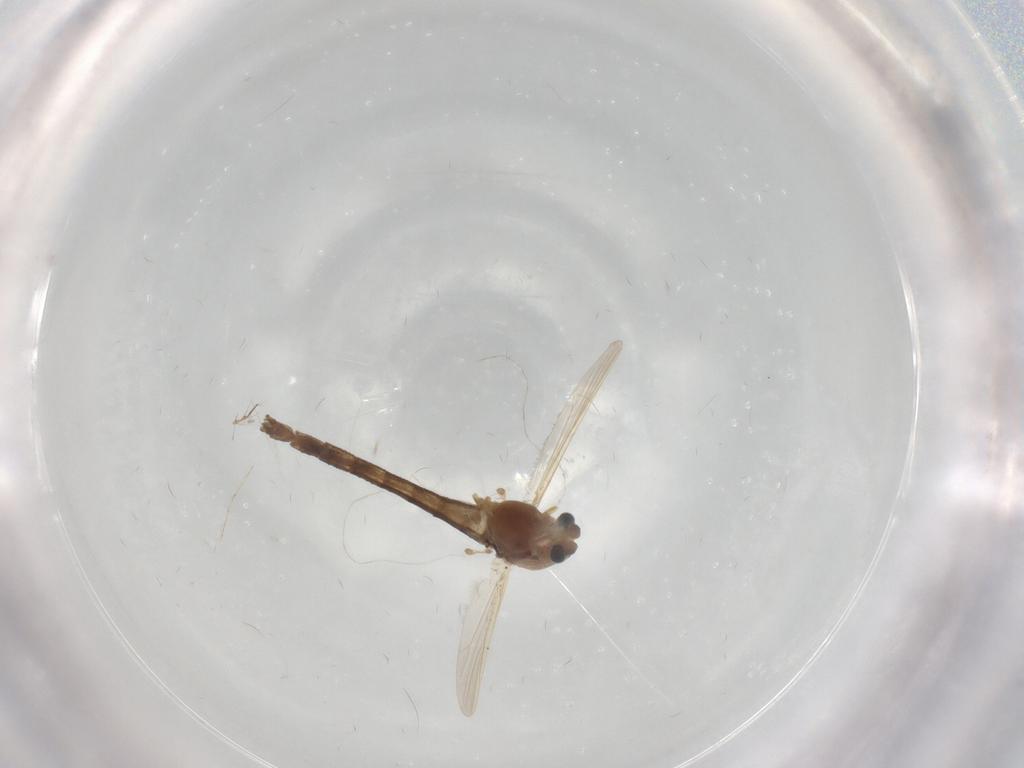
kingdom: Animalia
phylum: Arthropoda
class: Insecta
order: Diptera
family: Chironomidae
